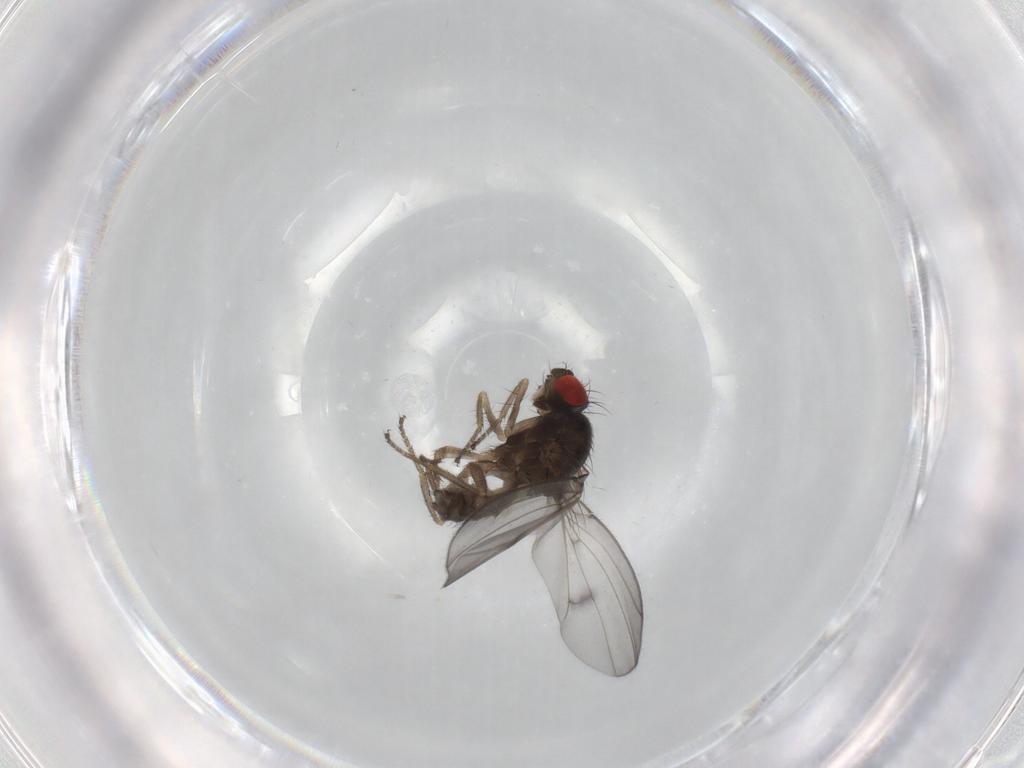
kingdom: Animalia
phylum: Arthropoda
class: Insecta
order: Diptera
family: Drosophilidae
